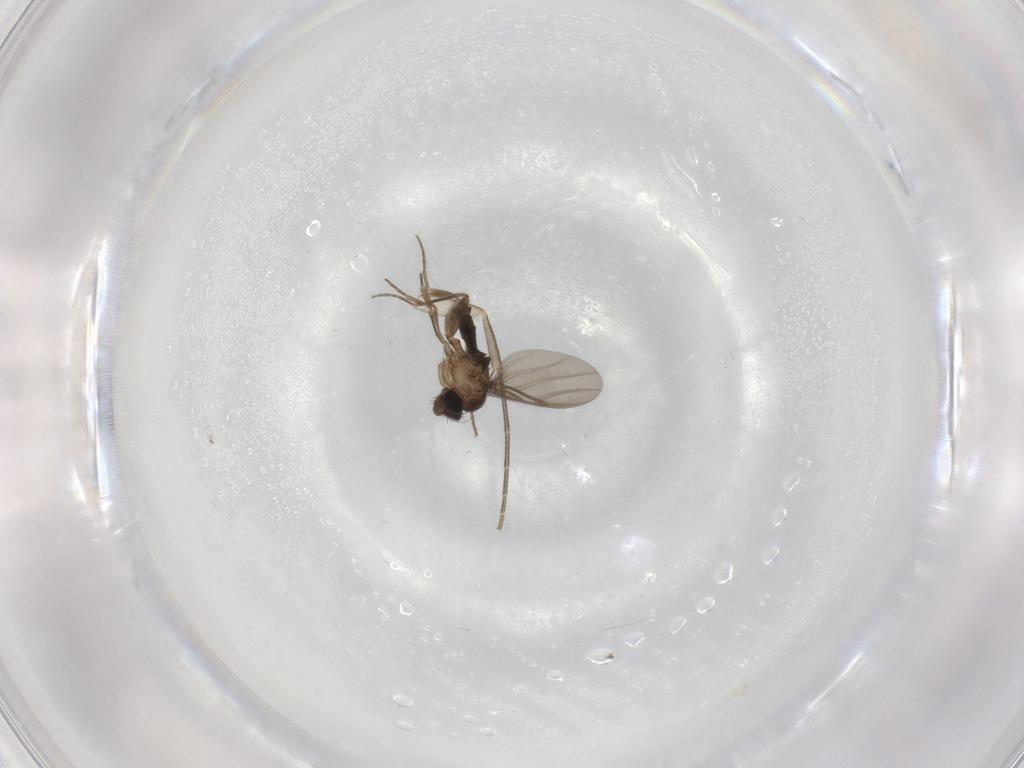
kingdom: Animalia
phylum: Arthropoda
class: Insecta
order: Diptera
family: Mycetophilidae
